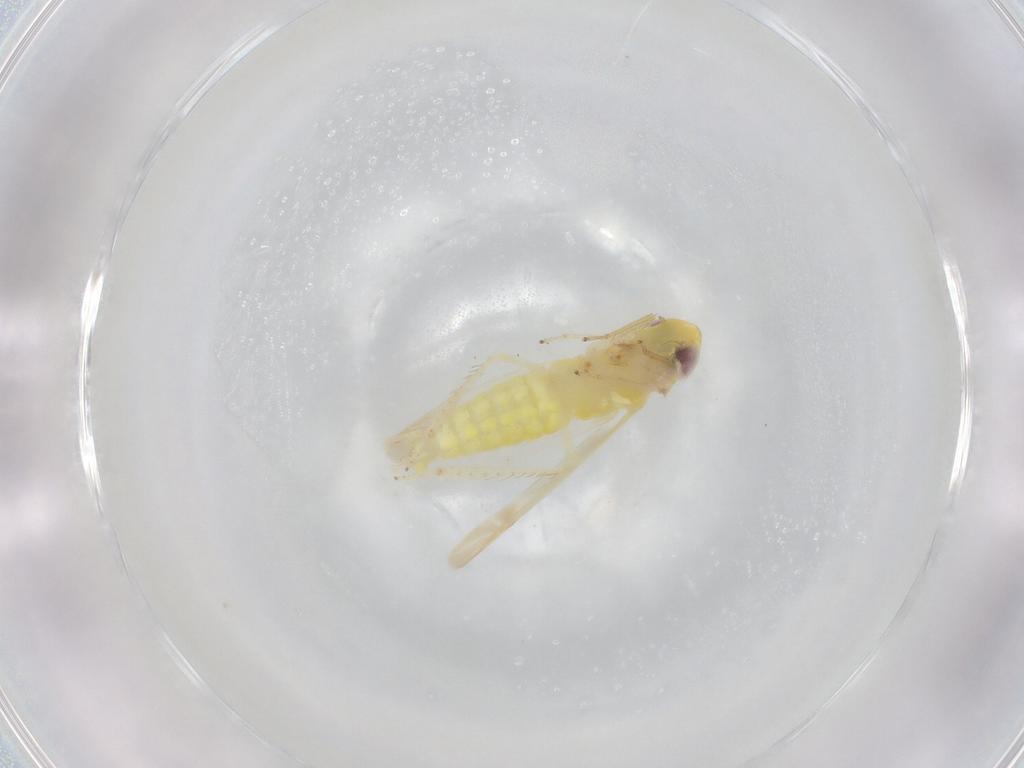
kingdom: Animalia
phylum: Arthropoda
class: Insecta
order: Hemiptera
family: Cicadellidae
